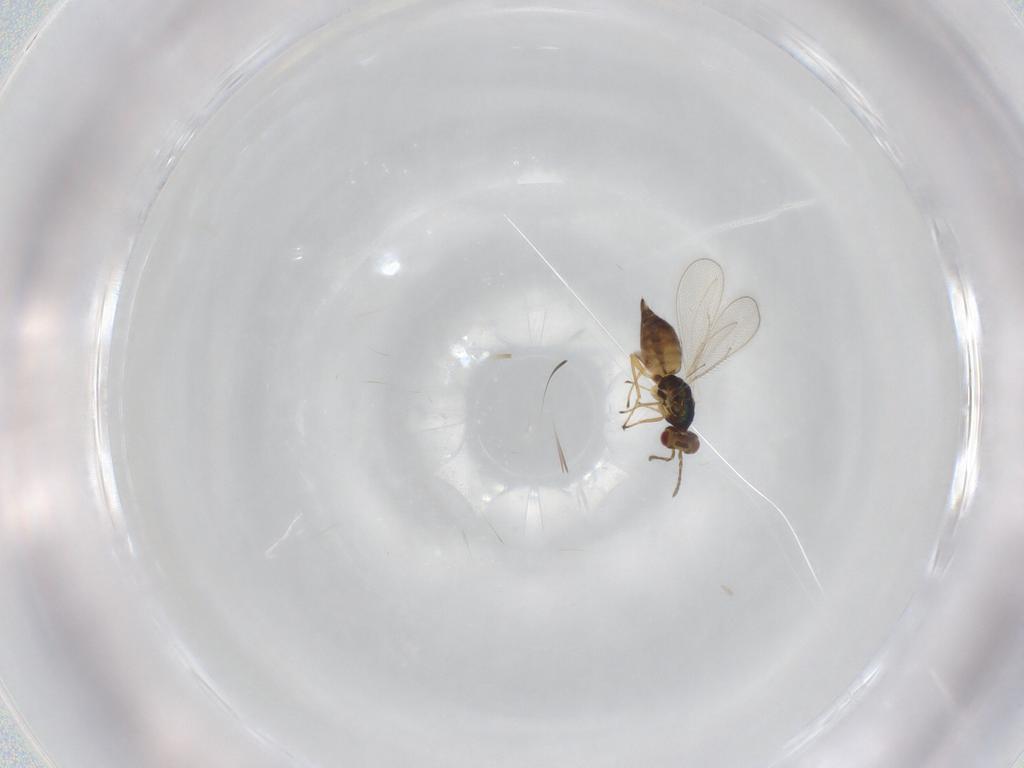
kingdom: Animalia
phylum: Arthropoda
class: Insecta
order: Hymenoptera
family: Eulophidae
